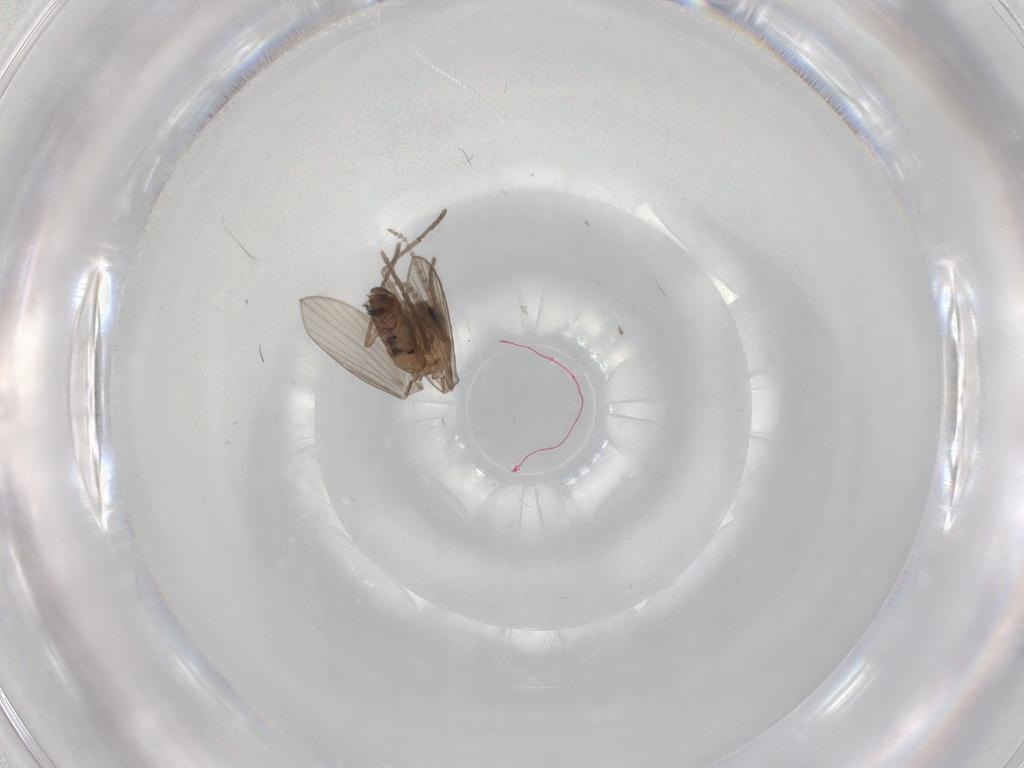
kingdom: Animalia
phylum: Arthropoda
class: Insecta
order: Diptera
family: Psychodidae
